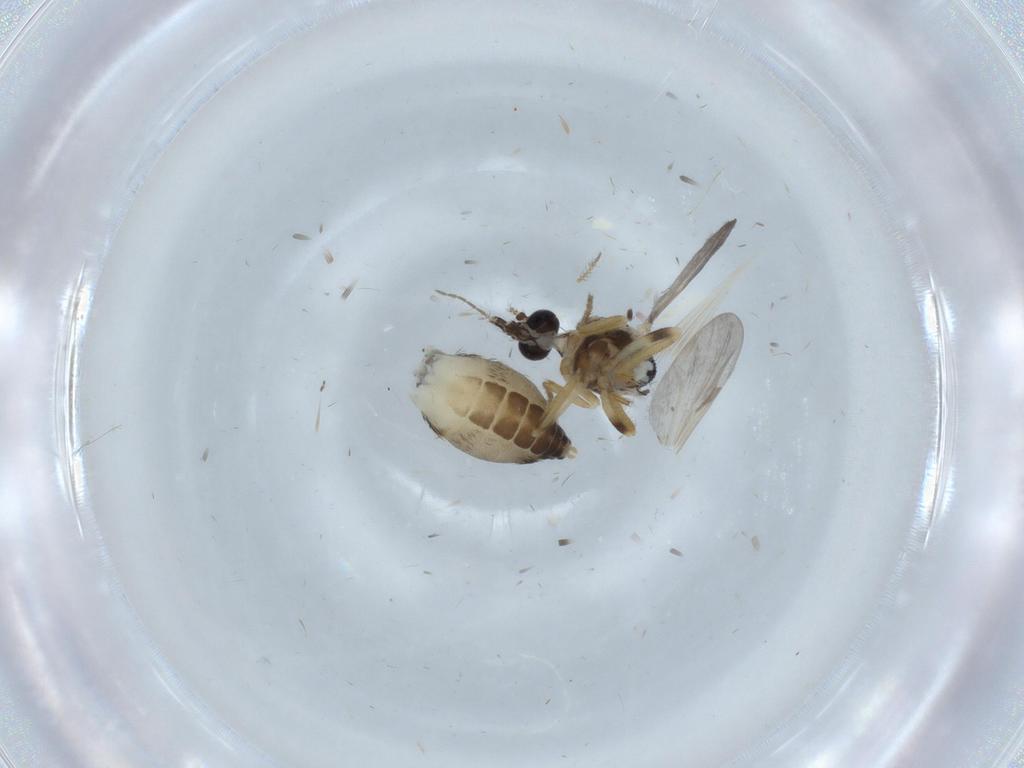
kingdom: Animalia
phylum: Arthropoda
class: Insecta
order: Diptera
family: Ceratopogonidae
